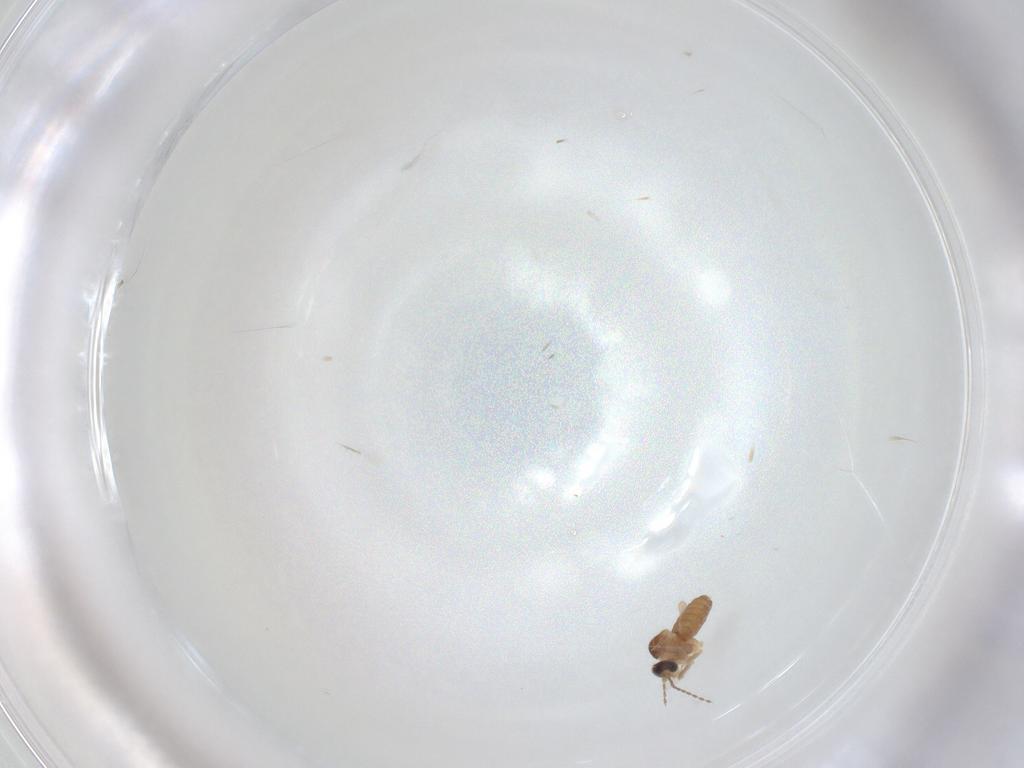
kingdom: Animalia
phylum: Arthropoda
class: Insecta
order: Diptera
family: Cecidomyiidae
